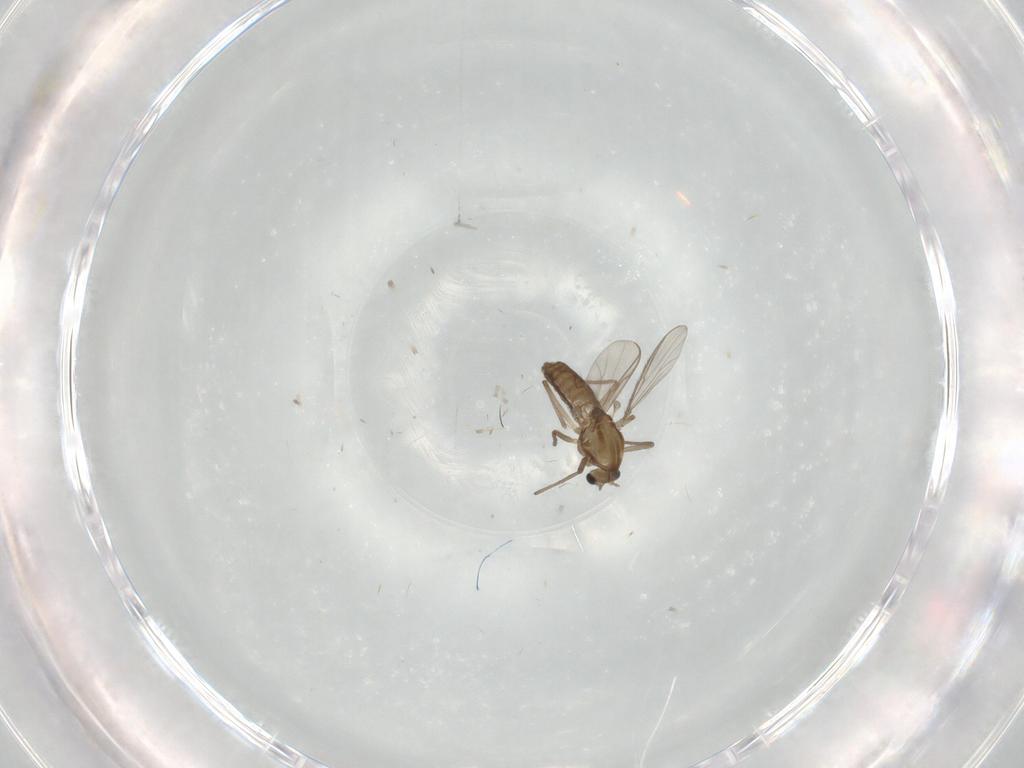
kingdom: Animalia
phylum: Arthropoda
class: Insecta
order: Diptera
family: Chironomidae
